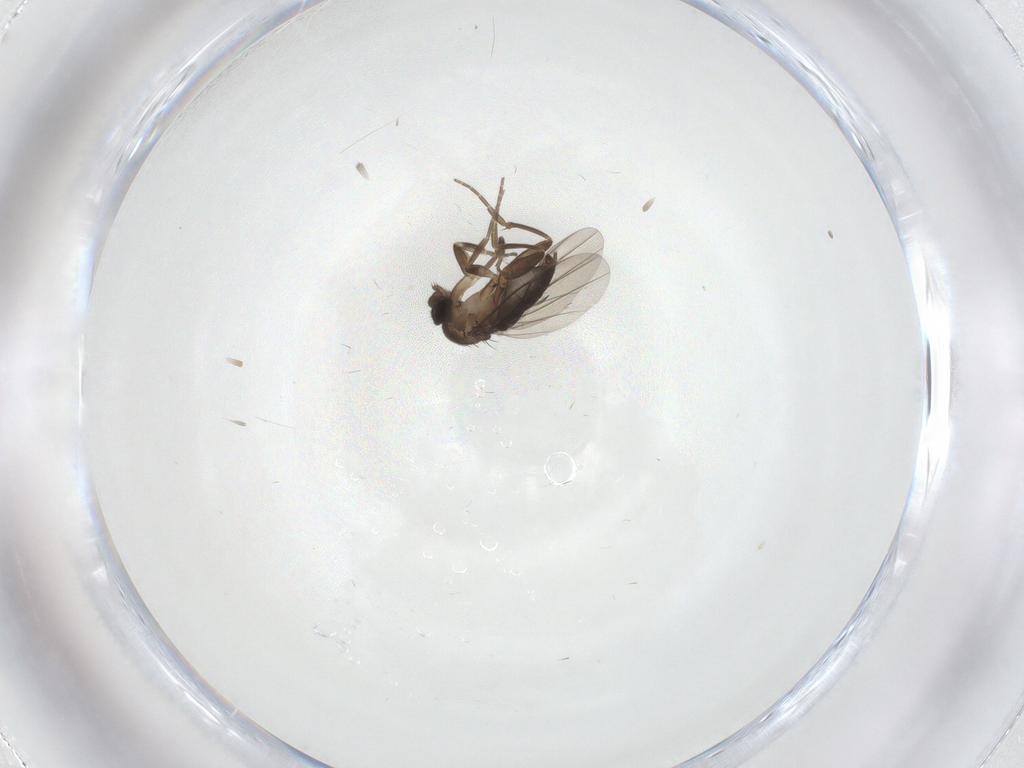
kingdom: Animalia
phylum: Arthropoda
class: Insecta
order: Diptera
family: Phoridae
